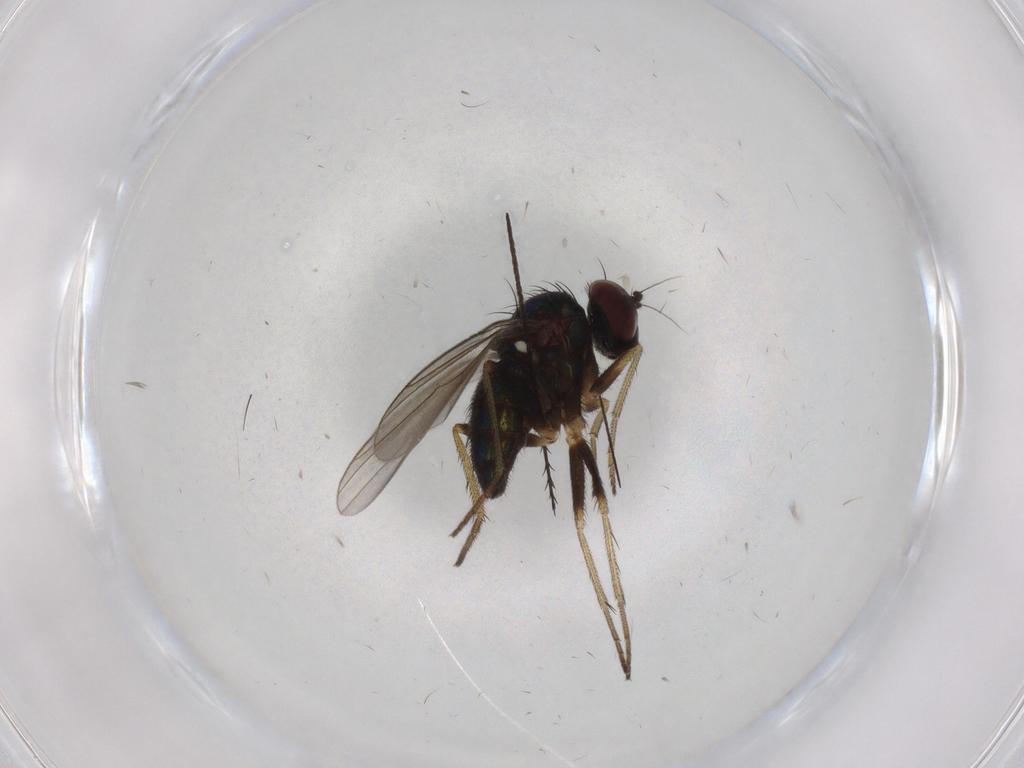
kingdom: Animalia
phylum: Arthropoda
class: Insecta
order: Diptera
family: Dolichopodidae
